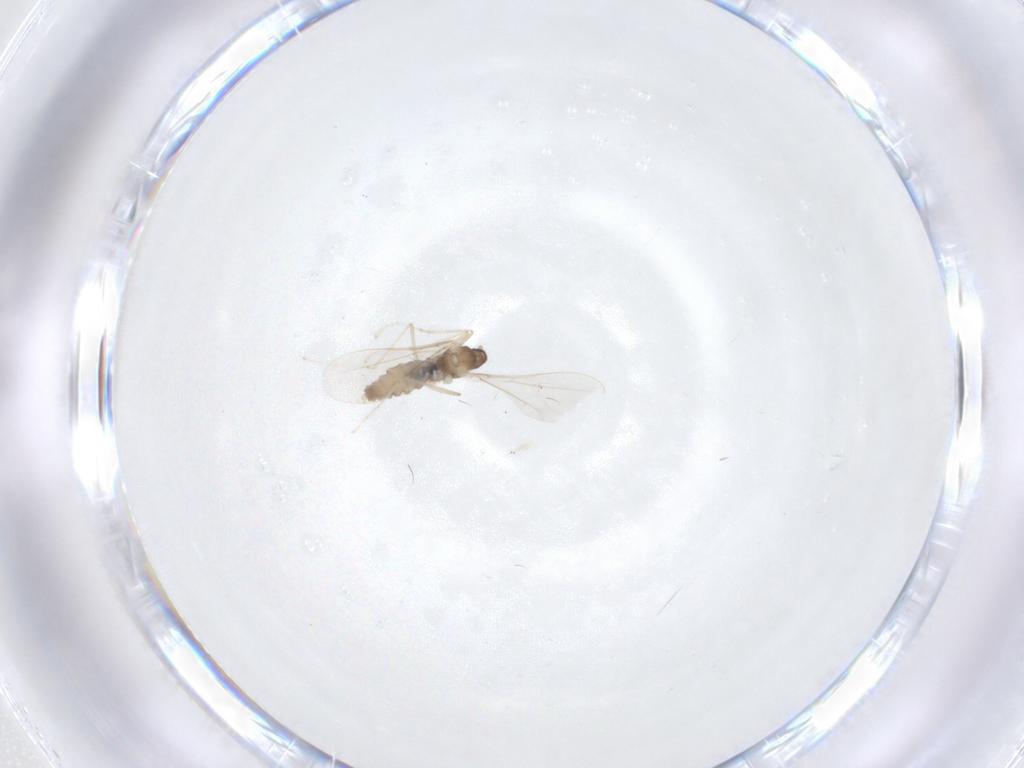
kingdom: Animalia
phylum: Arthropoda
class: Insecta
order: Diptera
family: Cecidomyiidae
